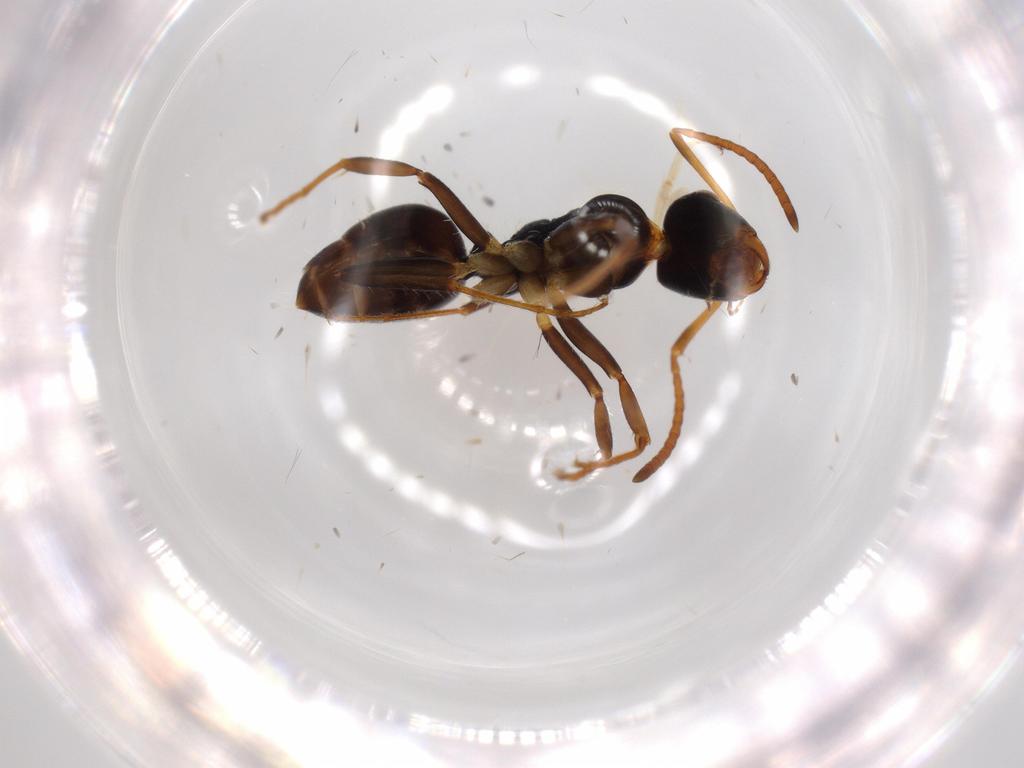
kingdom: Animalia
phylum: Arthropoda
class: Insecta
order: Hymenoptera
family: Formicidae
